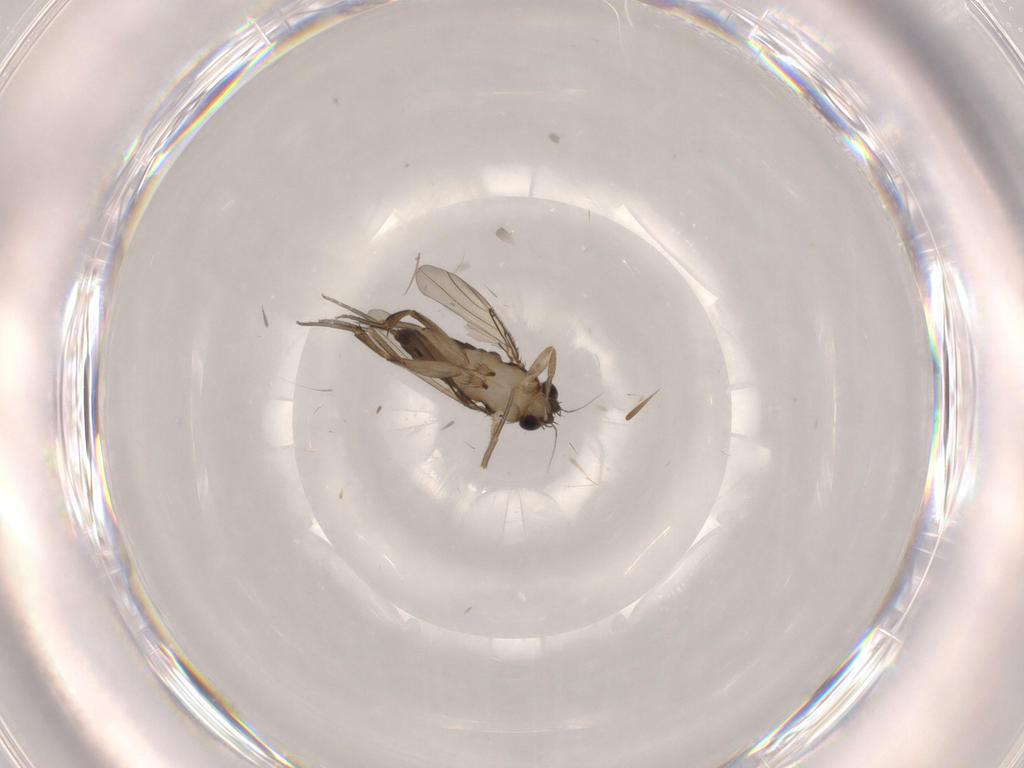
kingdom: Animalia
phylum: Arthropoda
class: Insecta
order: Diptera
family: Phoridae
